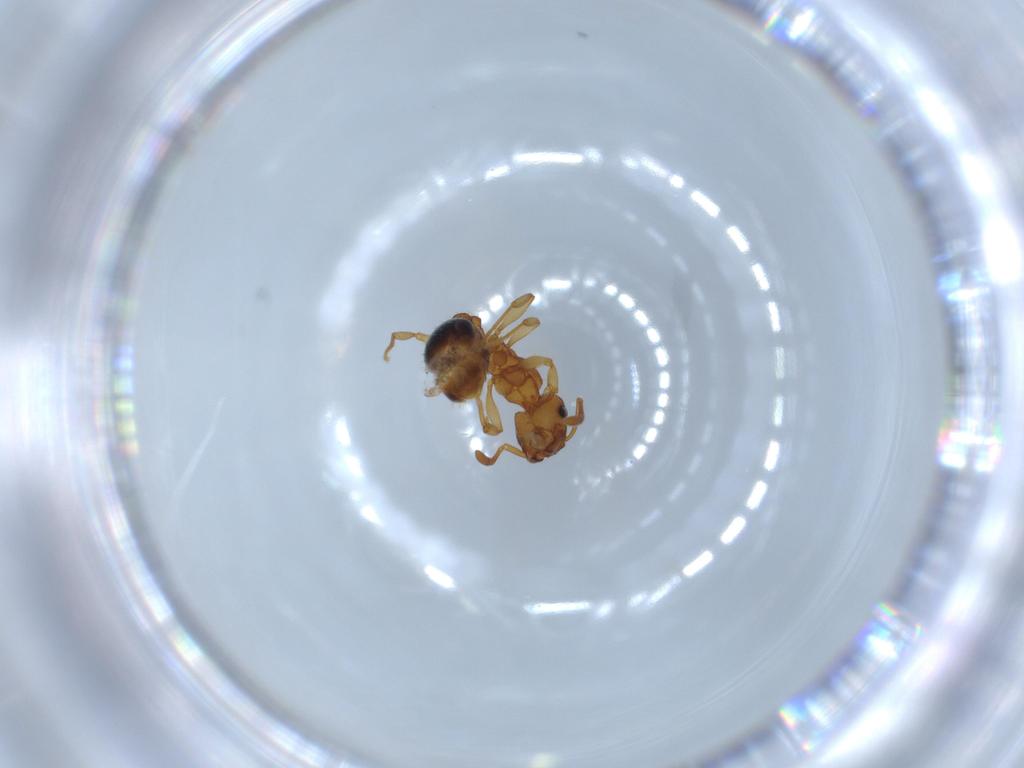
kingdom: Animalia
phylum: Arthropoda
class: Insecta
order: Hymenoptera
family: Formicidae
